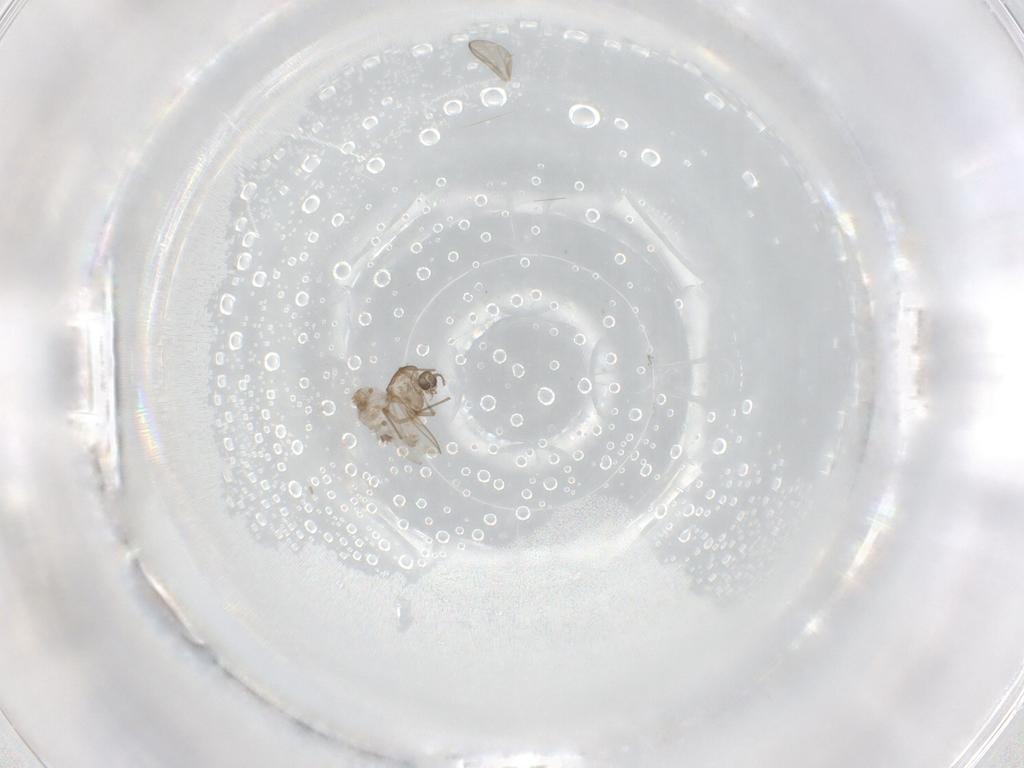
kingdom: Animalia
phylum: Arthropoda
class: Insecta
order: Diptera
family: Chironomidae
